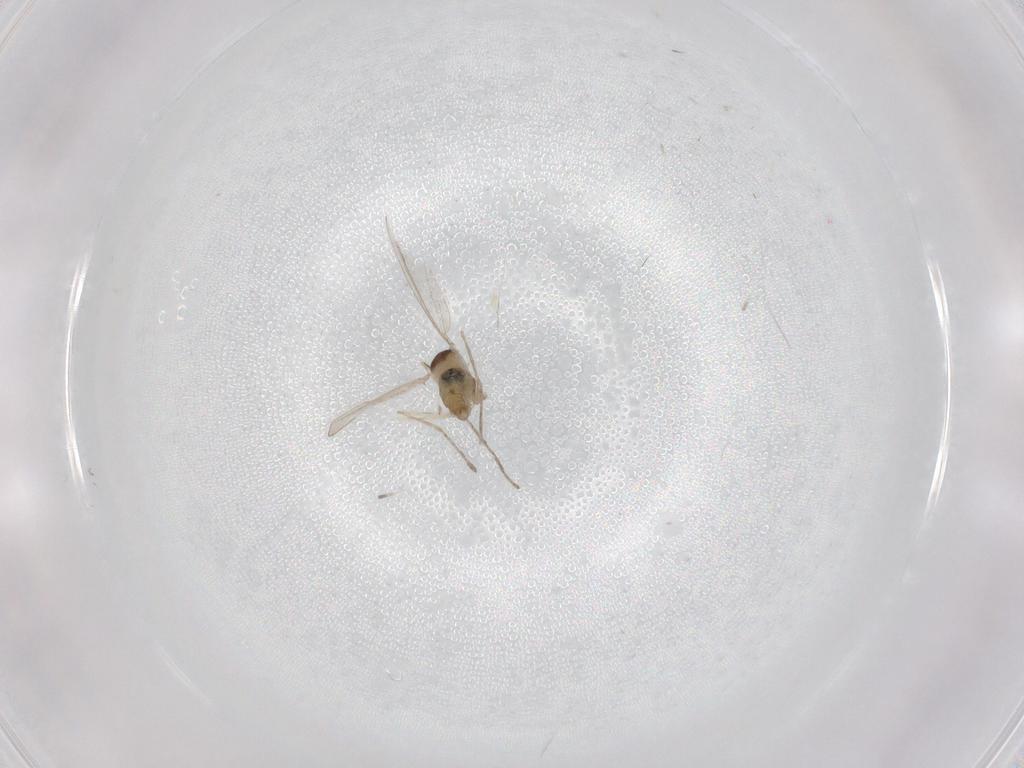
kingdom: Animalia
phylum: Arthropoda
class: Insecta
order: Diptera
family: Cecidomyiidae
